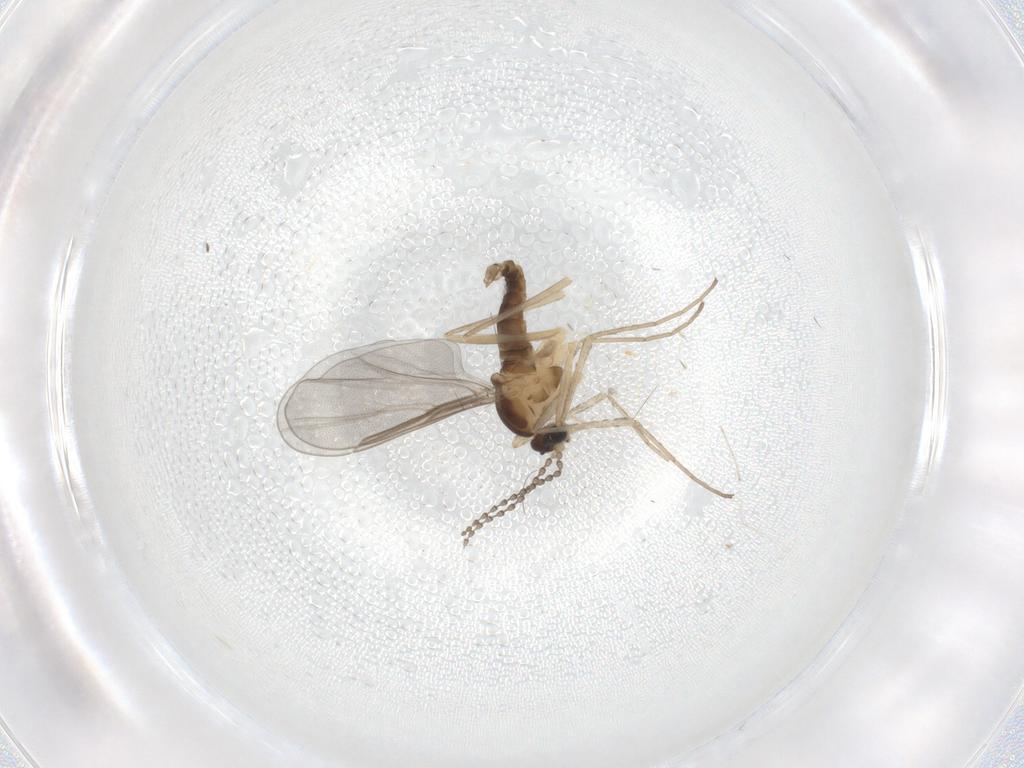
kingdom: Animalia
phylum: Arthropoda
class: Insecta
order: Diptera
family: Cecidomyiidae
